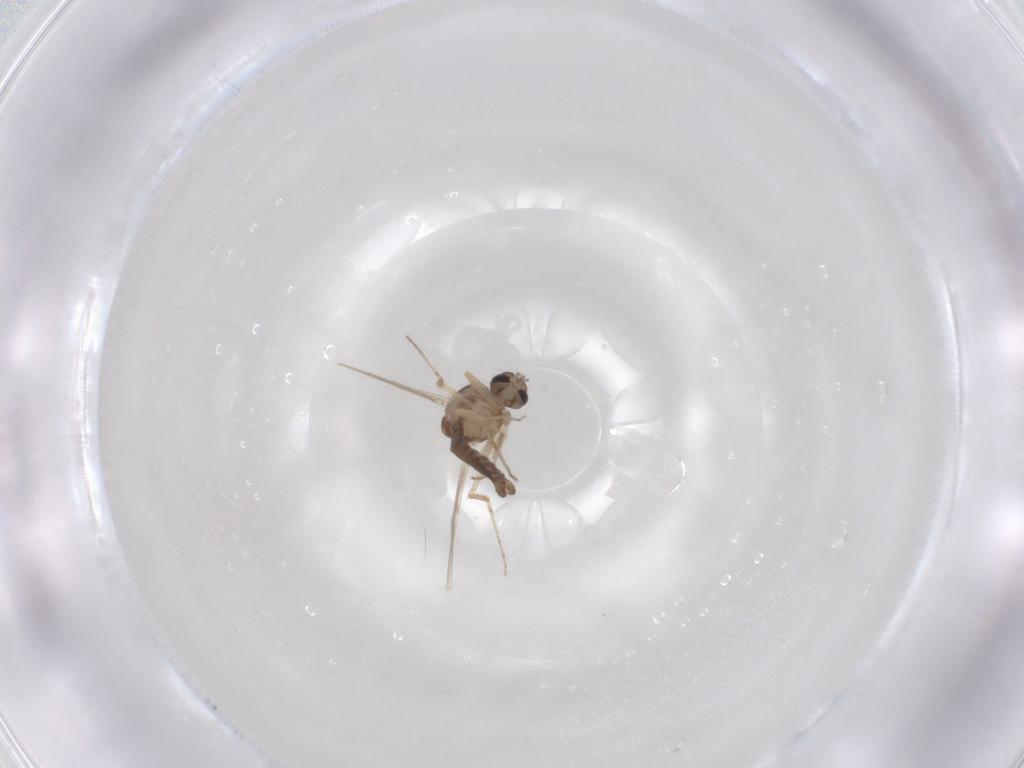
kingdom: Animalia
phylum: Arthropoda
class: Insecta
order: Diptera
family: Ceratopogonidae
